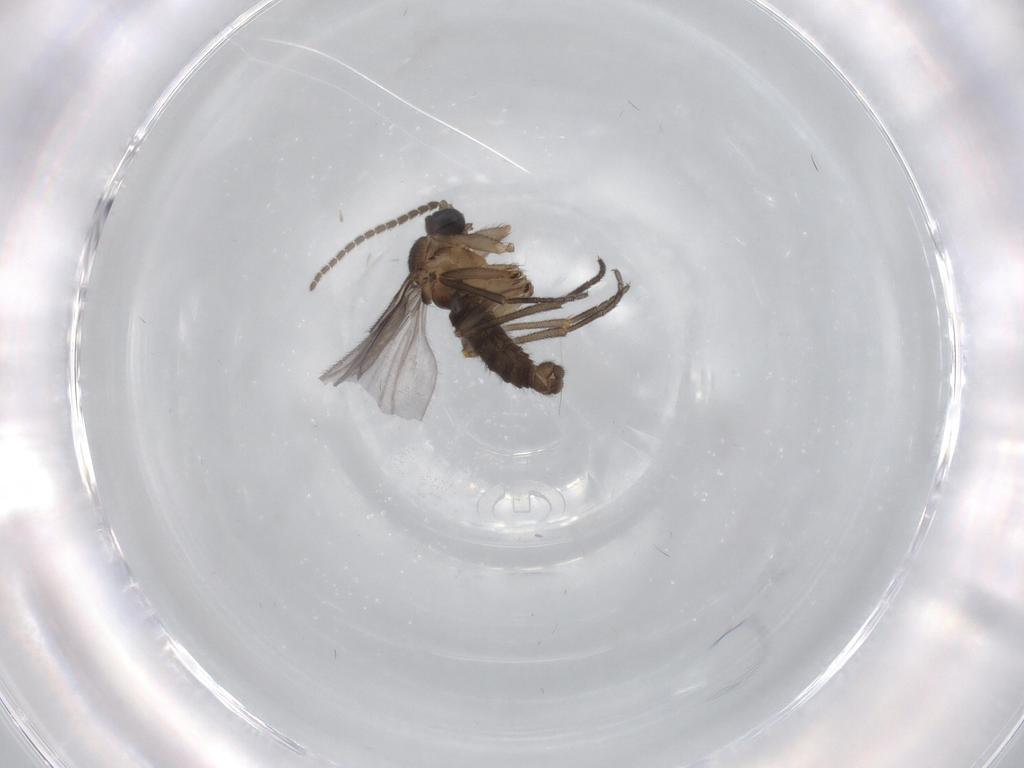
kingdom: Animalia
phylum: Arthropoda
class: Insecta
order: Diptera
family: Sciaridae
